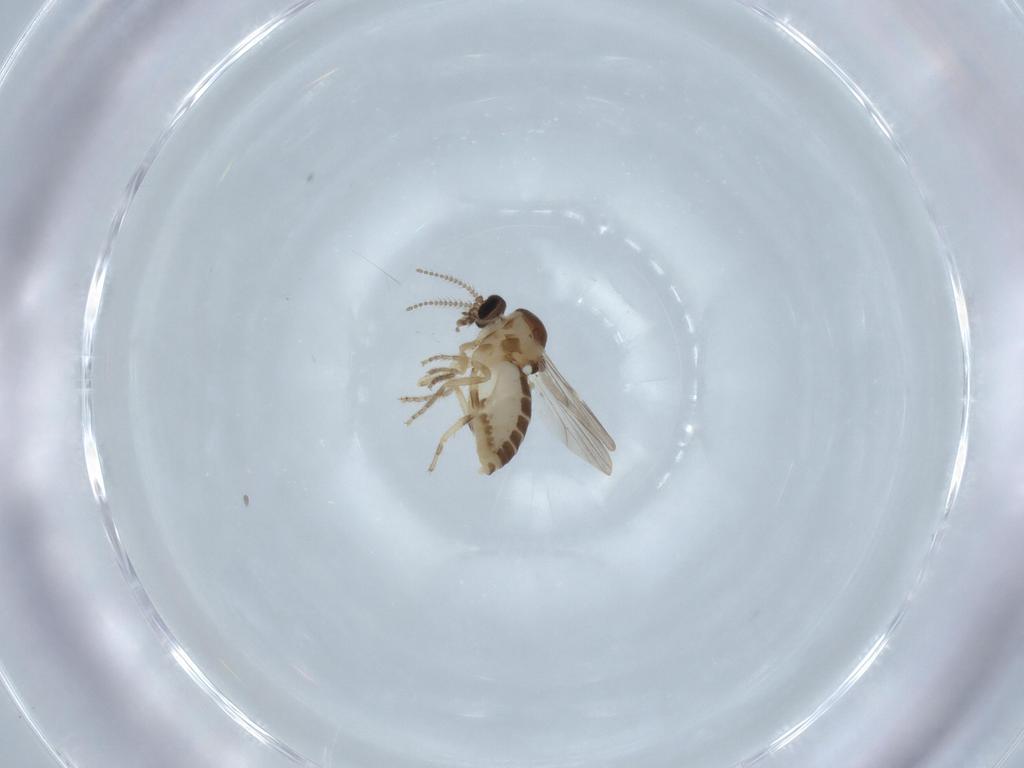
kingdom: Animalia
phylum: Arthropoda
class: Insecta
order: Diptera
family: Ceratopogonidae
